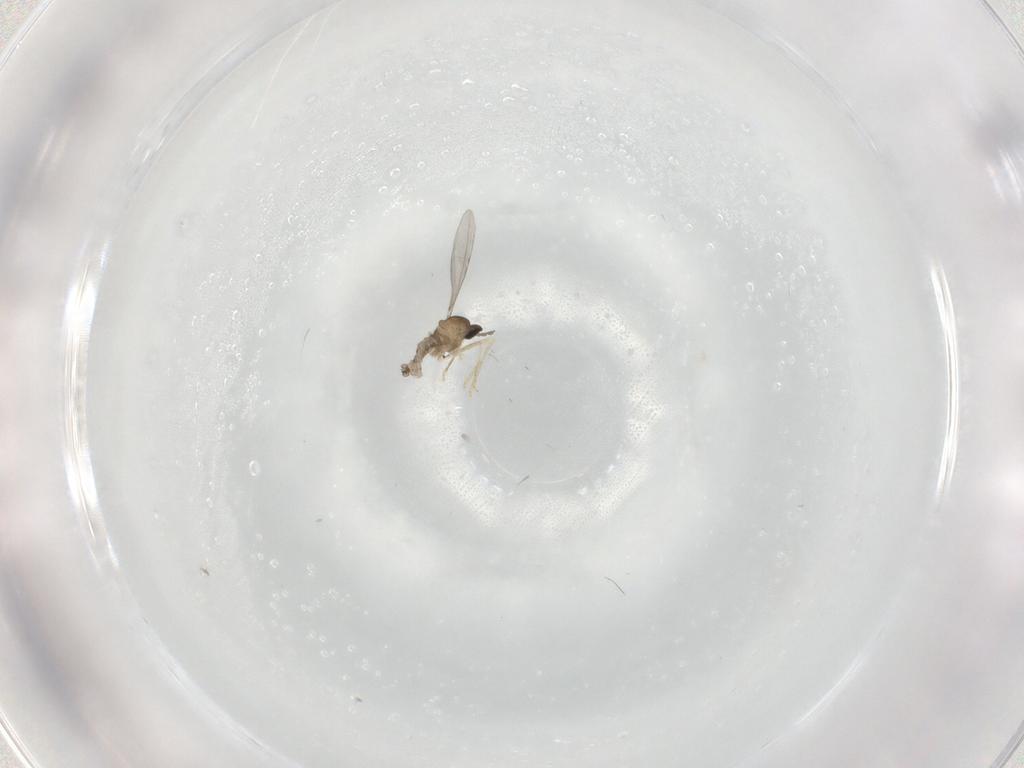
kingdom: Animalia
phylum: Arthropoda
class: Insecta
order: Diptera
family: Limoniidae
